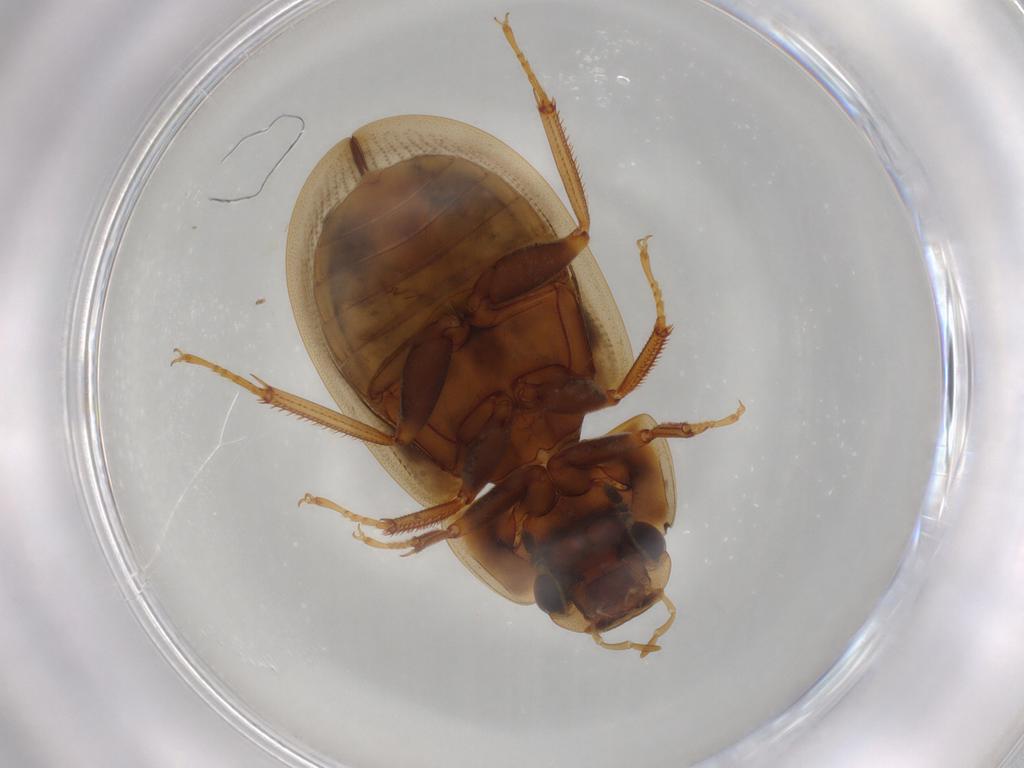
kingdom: Animalia
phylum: Arthropoda
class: Insecta
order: Coleoptera
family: Hydrophilidae
